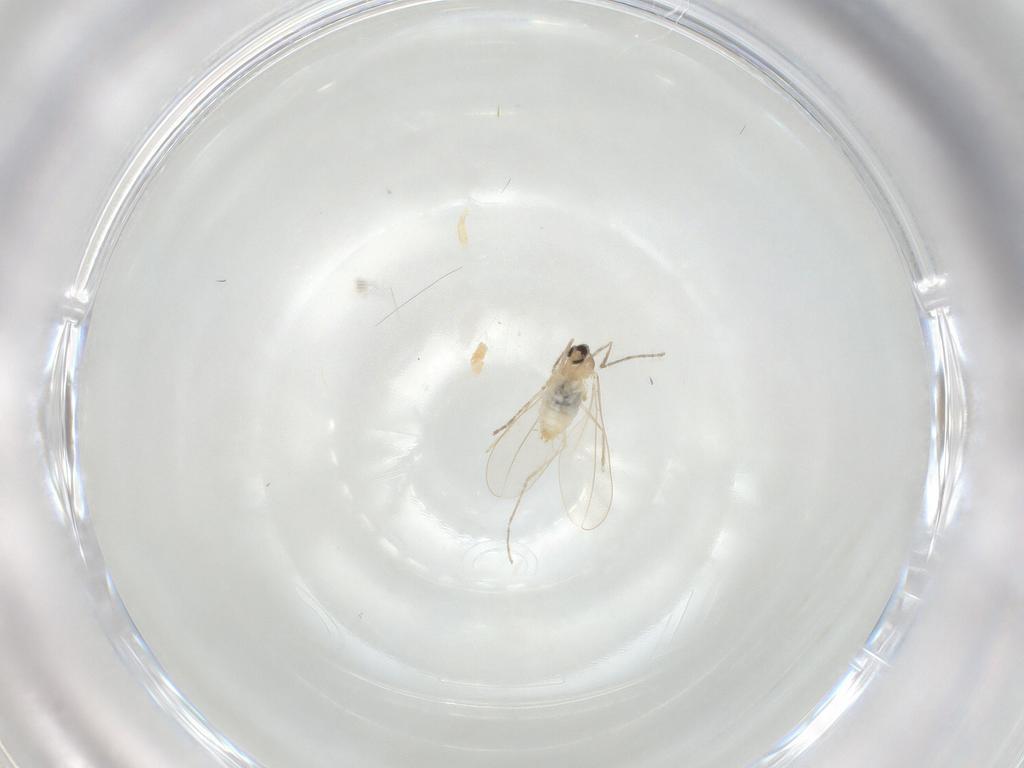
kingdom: Animalia
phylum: Arthropoda
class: Insecta
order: Diptera
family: Cecidomyiidae
